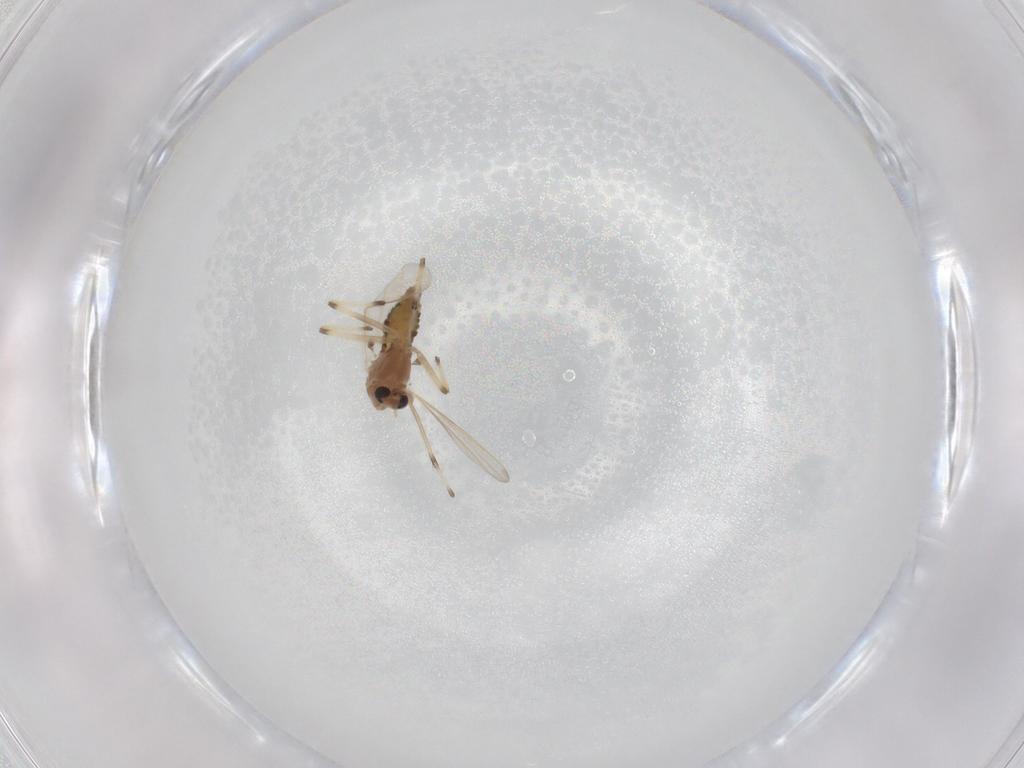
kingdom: Animalia
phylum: Arthropoda
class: Insecta
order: Diptera
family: Chironomidae
